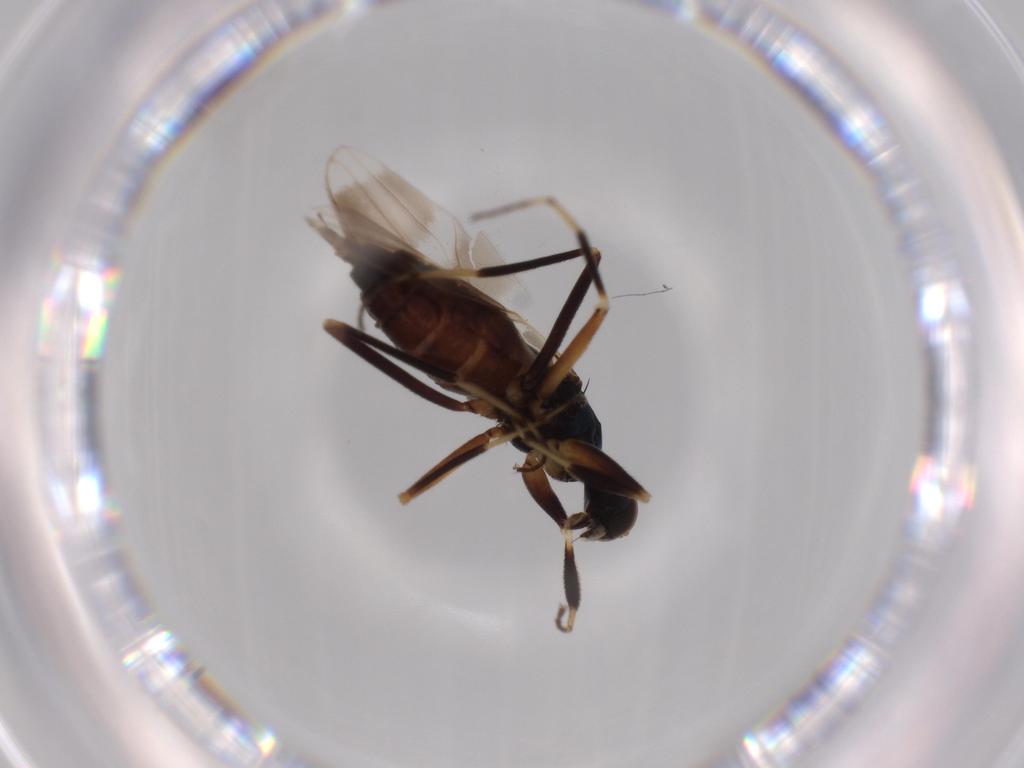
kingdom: Animalia
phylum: Arthropoda
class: Insecta
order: Diptera
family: Hybotidae
